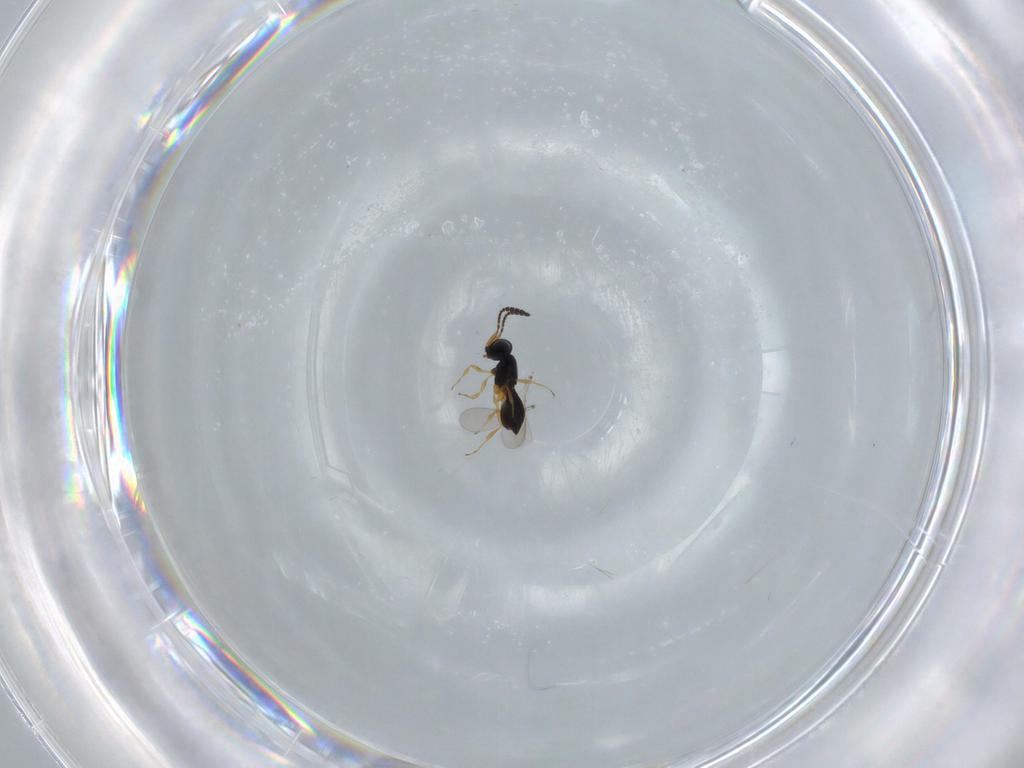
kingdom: Animalia
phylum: Arthropoda
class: Insecta
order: Hymenoptera
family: Scelionidae
